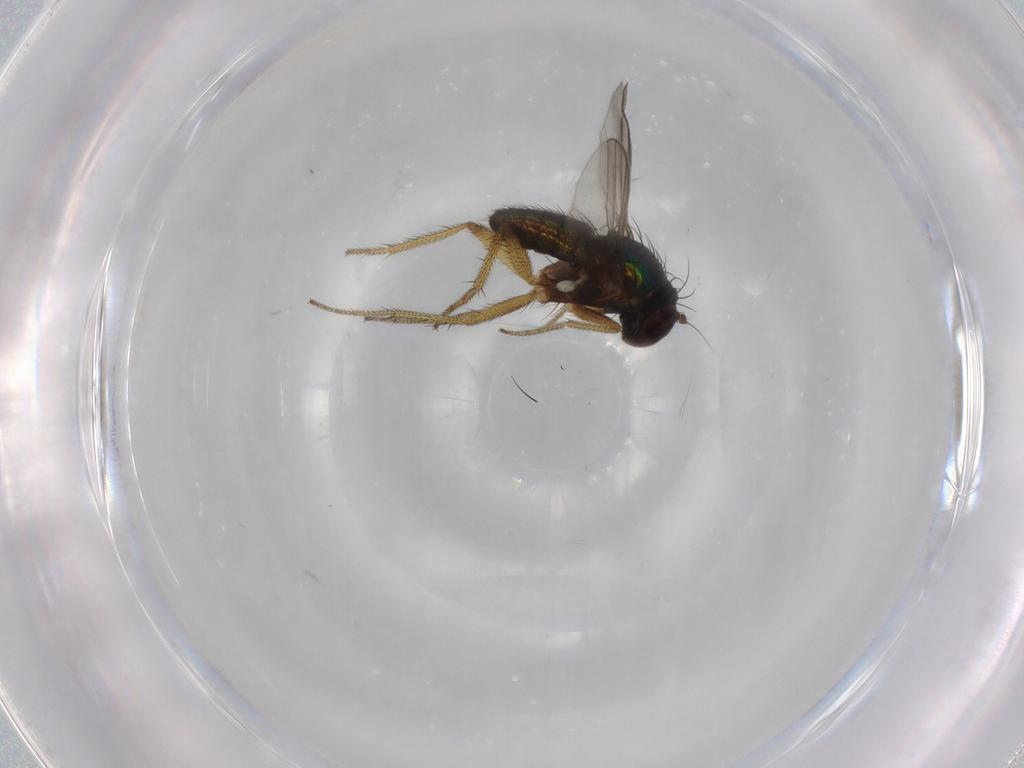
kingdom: Animalia
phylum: Arthropoda
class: Insecta
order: Diptera
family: Dolichopodidae
